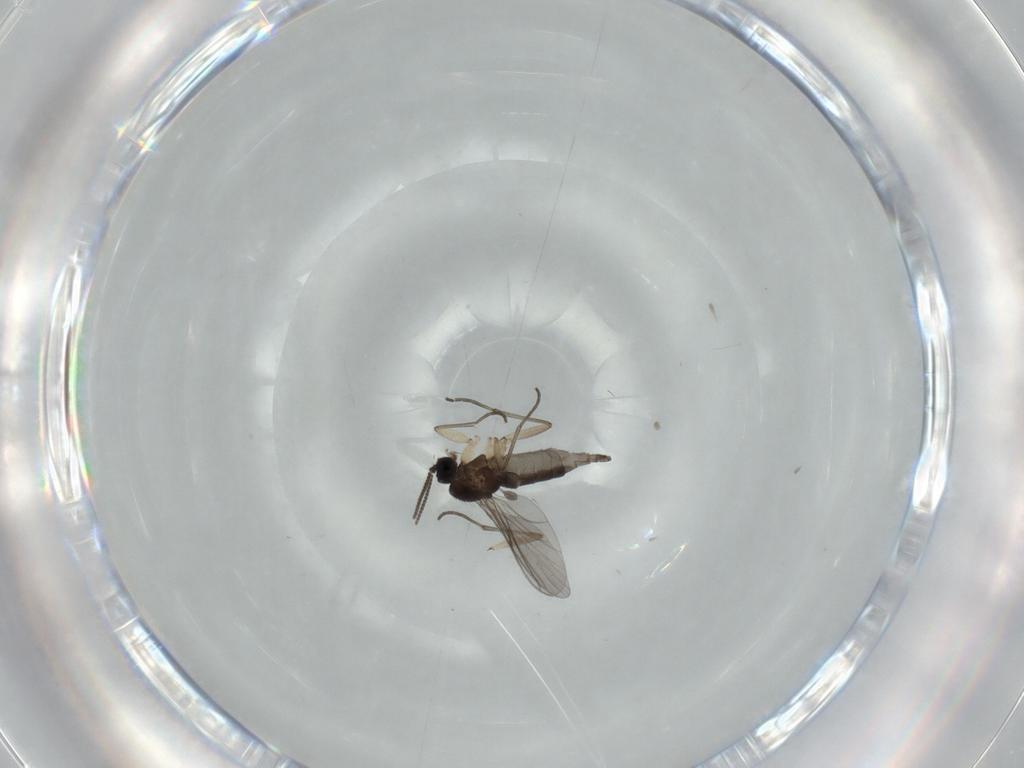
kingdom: Animalia
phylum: Arthropoda
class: Insecta
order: Diptera
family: Sciaridae
